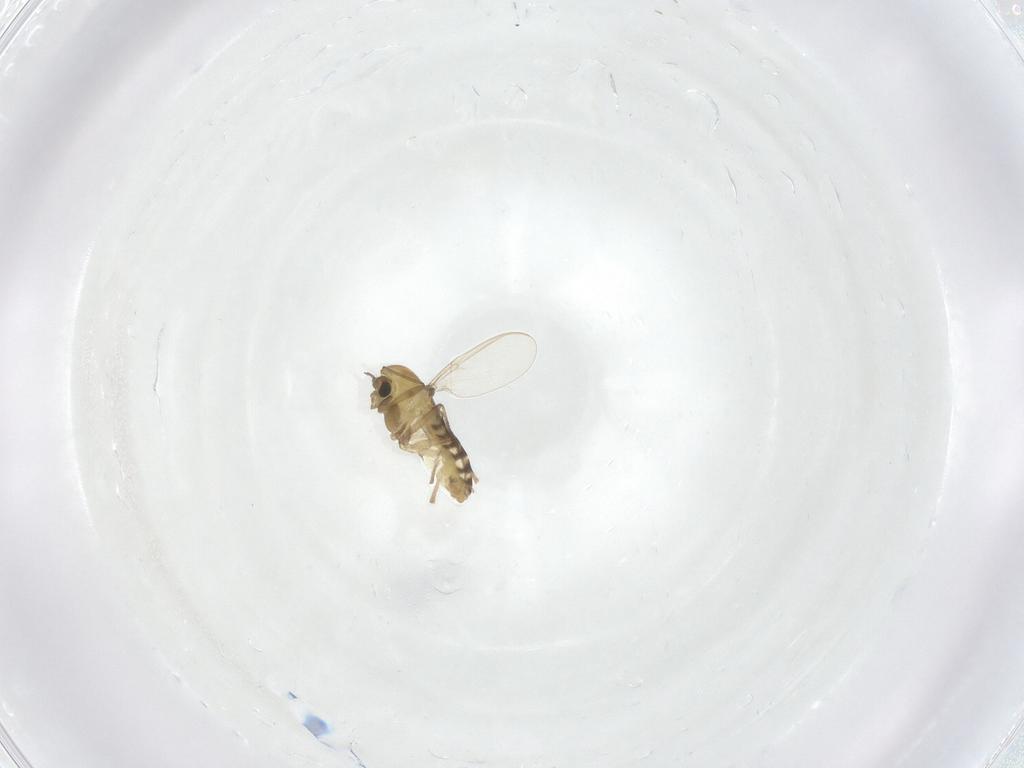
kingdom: Animalia
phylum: Arthropoda
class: Insecta
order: Diptera
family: Chironomidae
